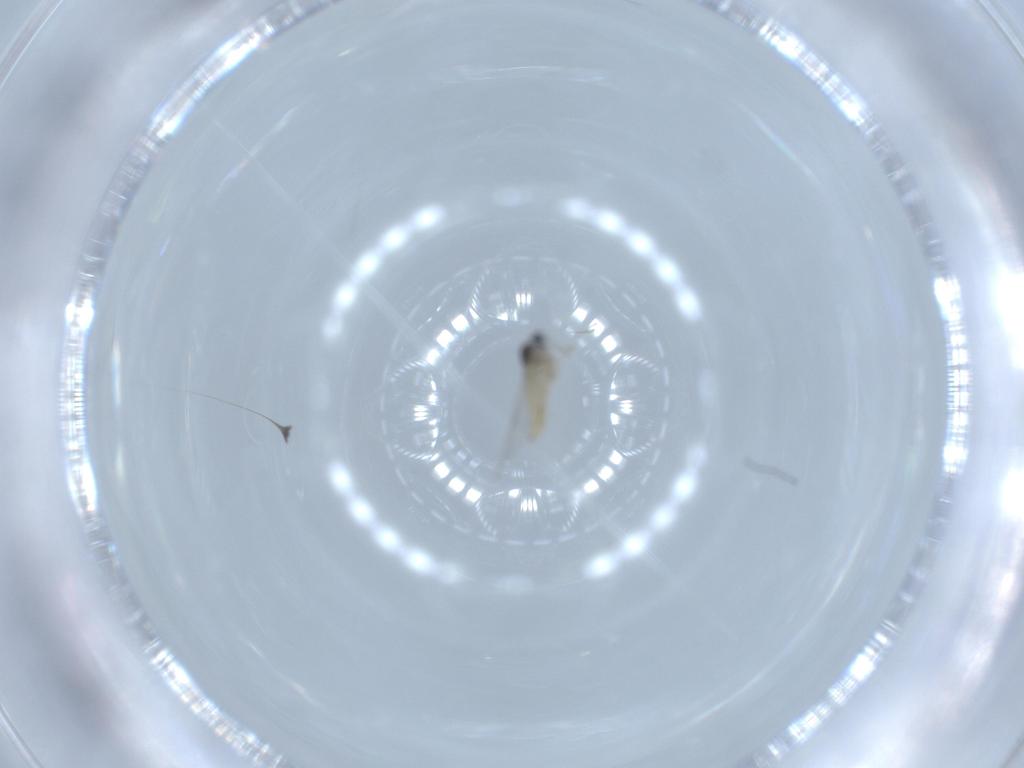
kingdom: Animalia
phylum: Arthropoda
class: Insecta
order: Diptera
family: Cecidomyiidae
